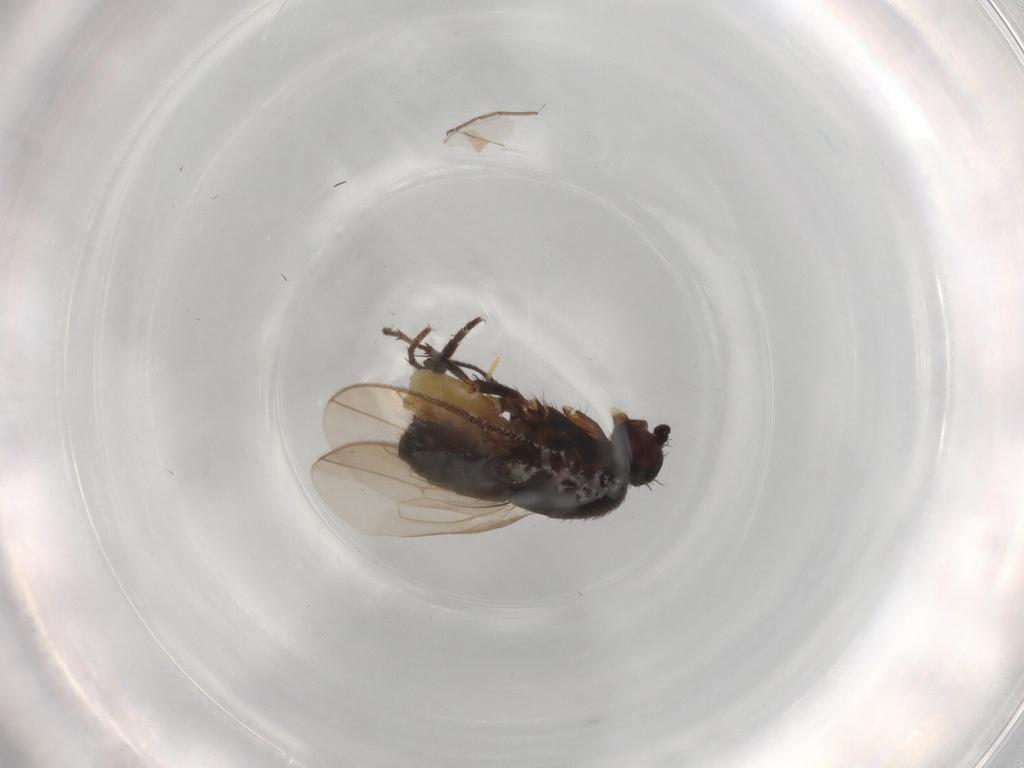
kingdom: Animalia
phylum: Arthropoda
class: Insecta
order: Diptera
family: Sphaeroceridae
